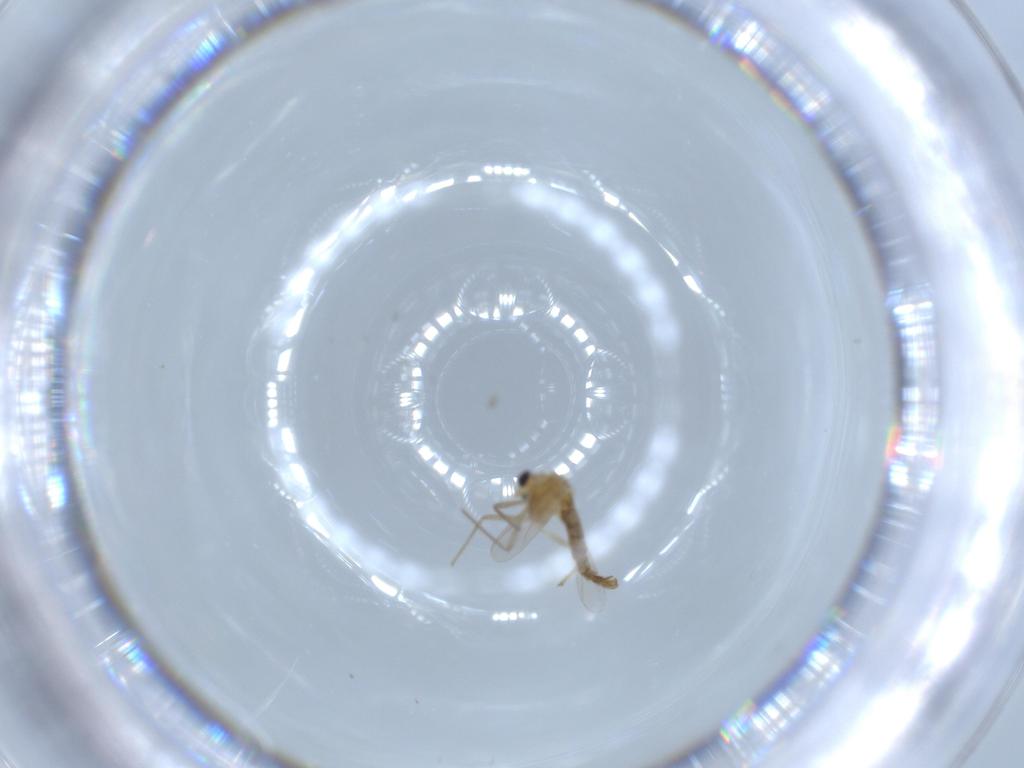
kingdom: Animalia
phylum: Arthropoda
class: Insecta
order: Diptera
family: Chironomidae
